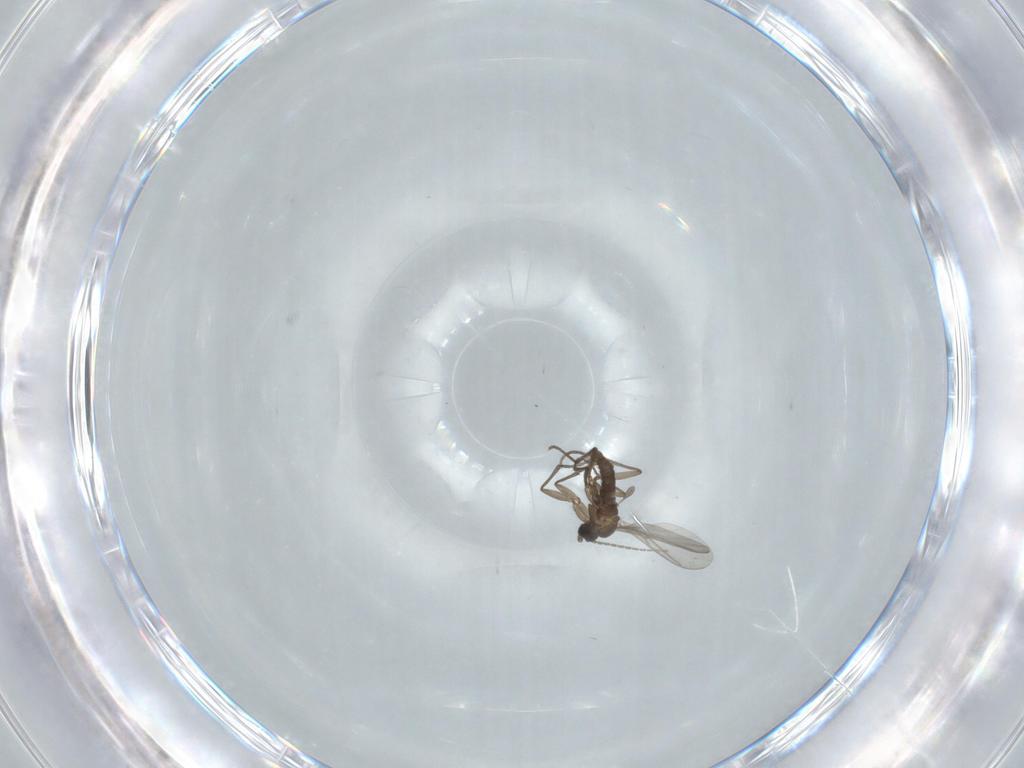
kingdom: Animalia
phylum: Arthropoda
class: Insecta
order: Diptera
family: Sciaridae
